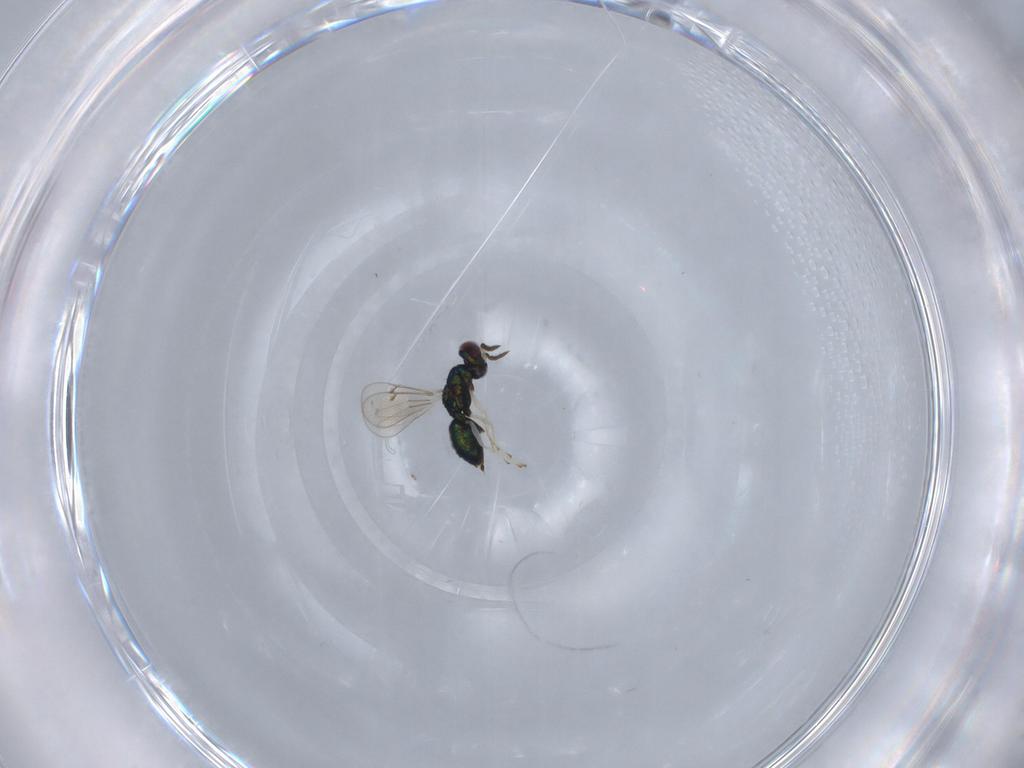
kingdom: Animalia
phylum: Arthropoda
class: Insecta
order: Hymenoptera
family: Eulophidae
